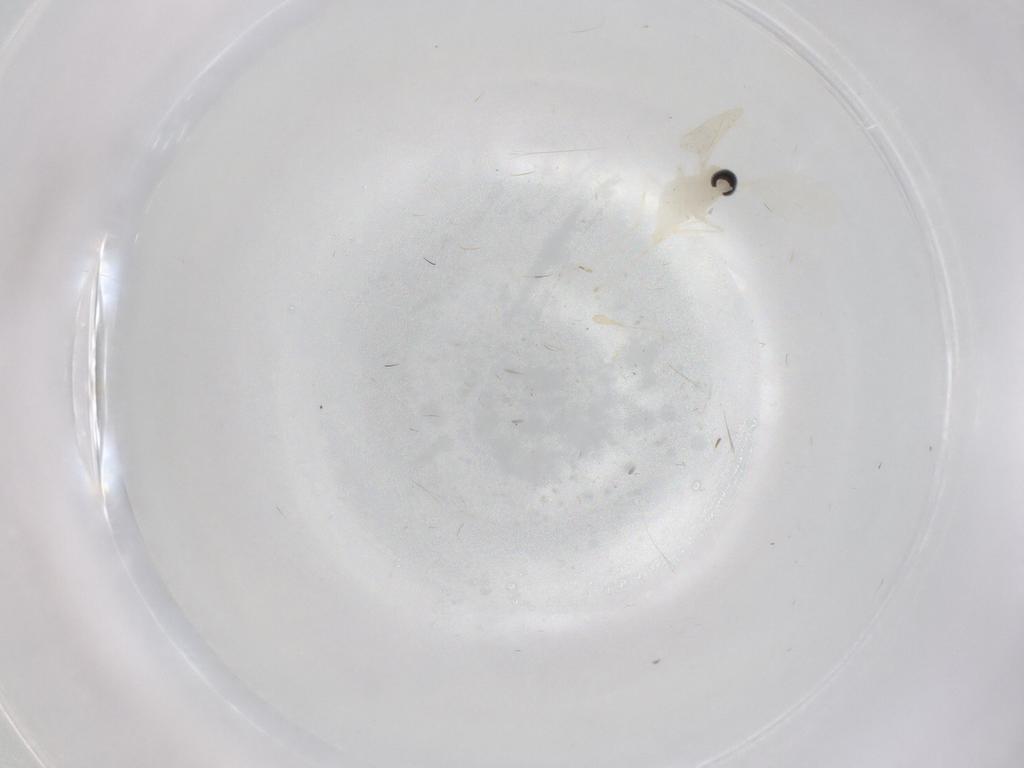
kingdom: Animalia
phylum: Arthropoda
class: Insecta
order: Diptera
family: Cecidomyiidae
